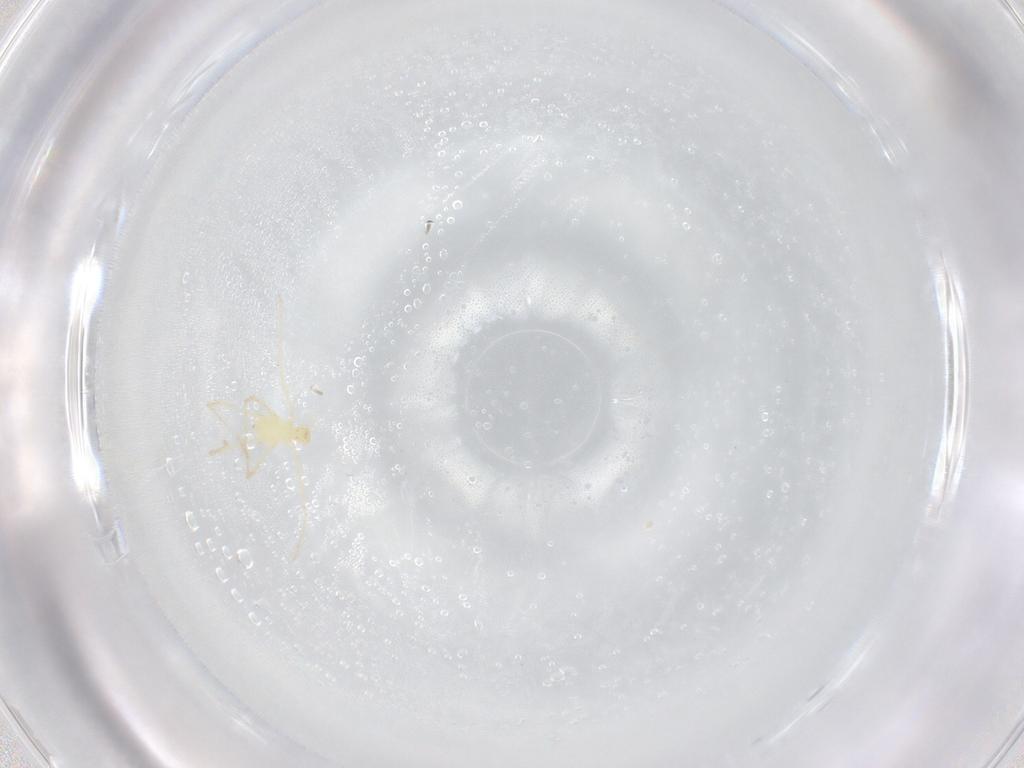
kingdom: Animalia
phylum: Arthropoda
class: Arachnida
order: Trombidiformes
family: Erythraeidae
